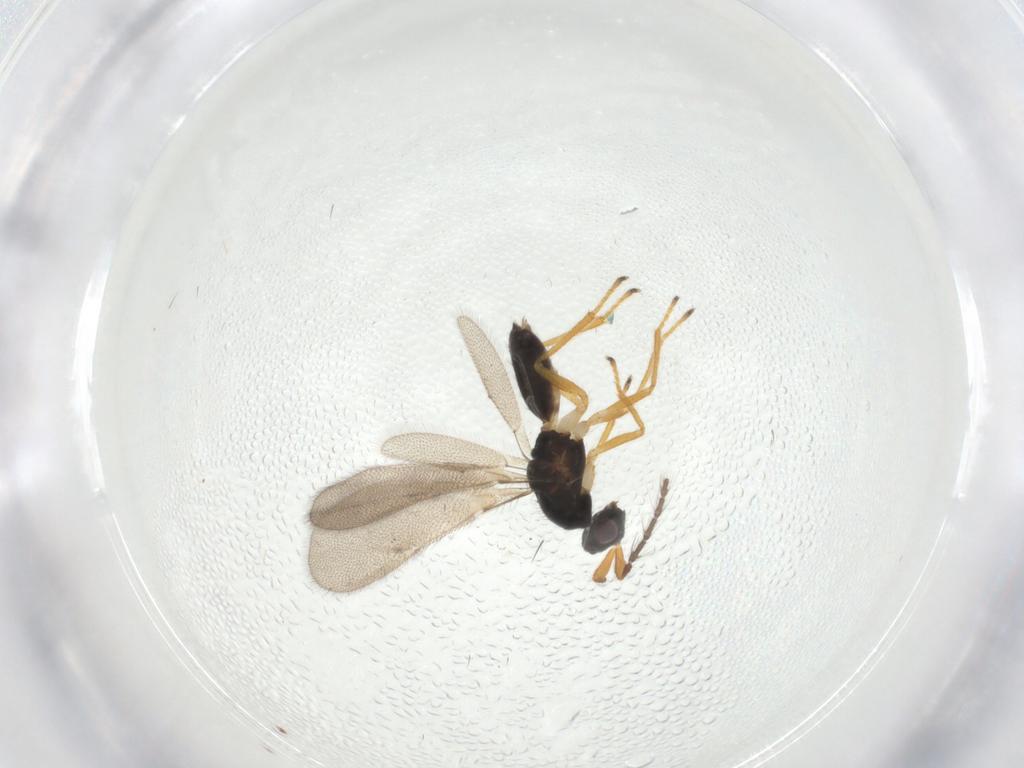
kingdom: Animalia
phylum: Arthropoda
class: Insecta
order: Hymenoptera
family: Eulophidae
